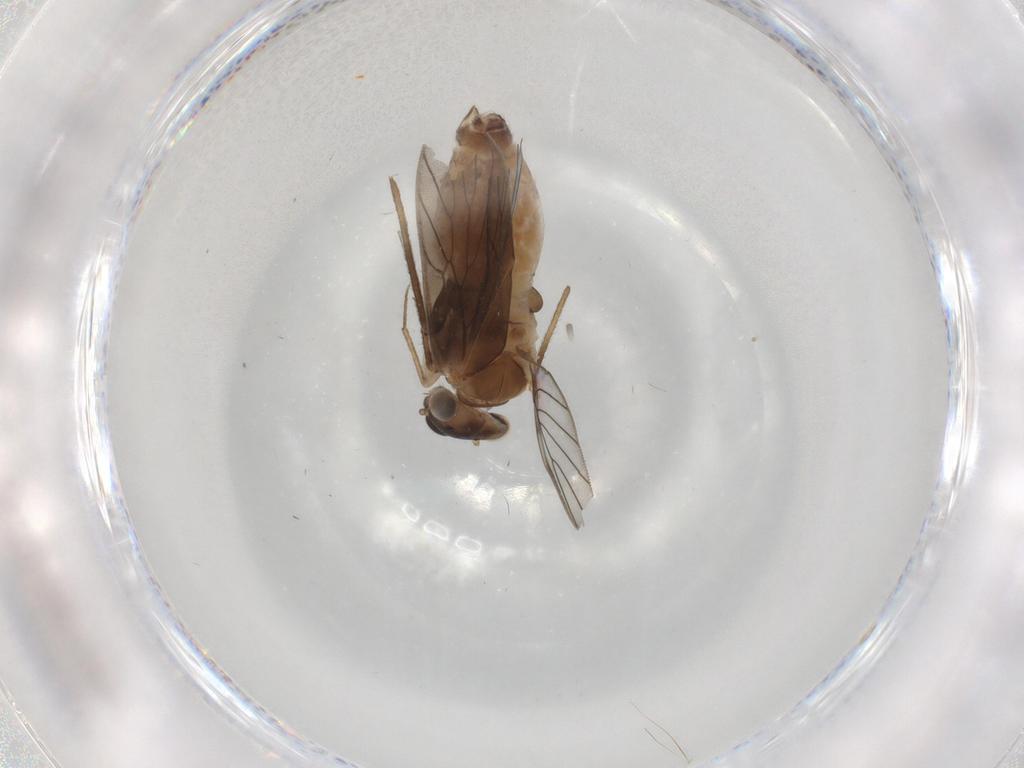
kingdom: Animalia
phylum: Arthropoda
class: Insecta
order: Psocodea
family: Lepidopsocidae
